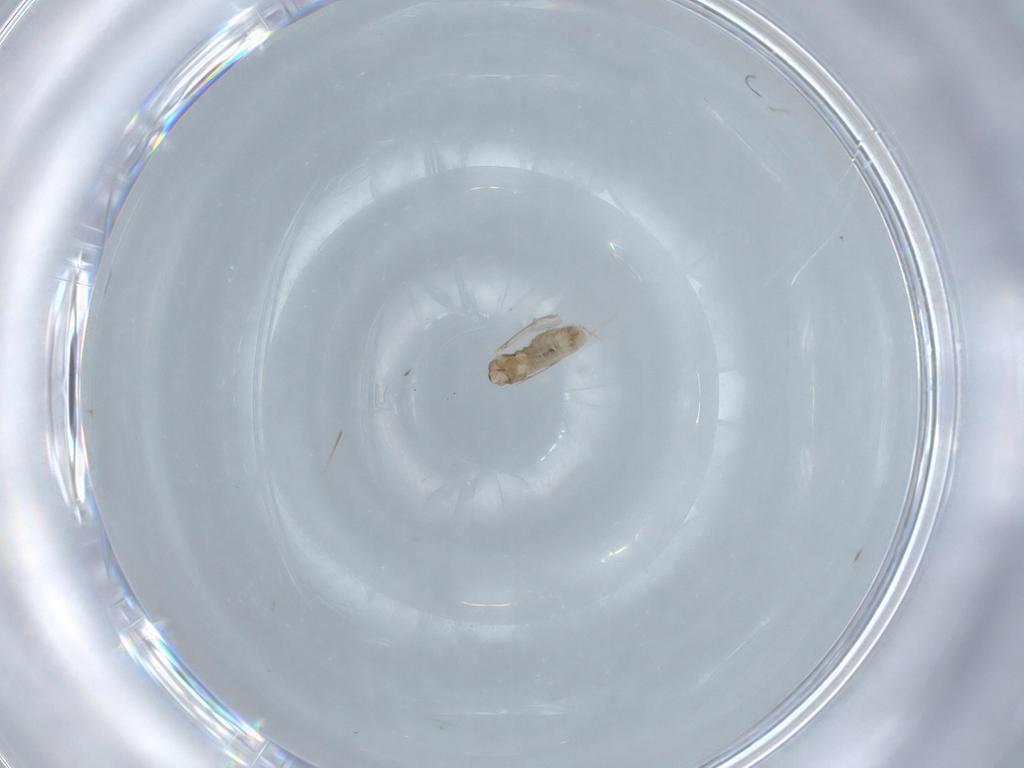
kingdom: Animalia
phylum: Arthropoda
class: Insecta
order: Diptera
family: Cecidomyiidae
